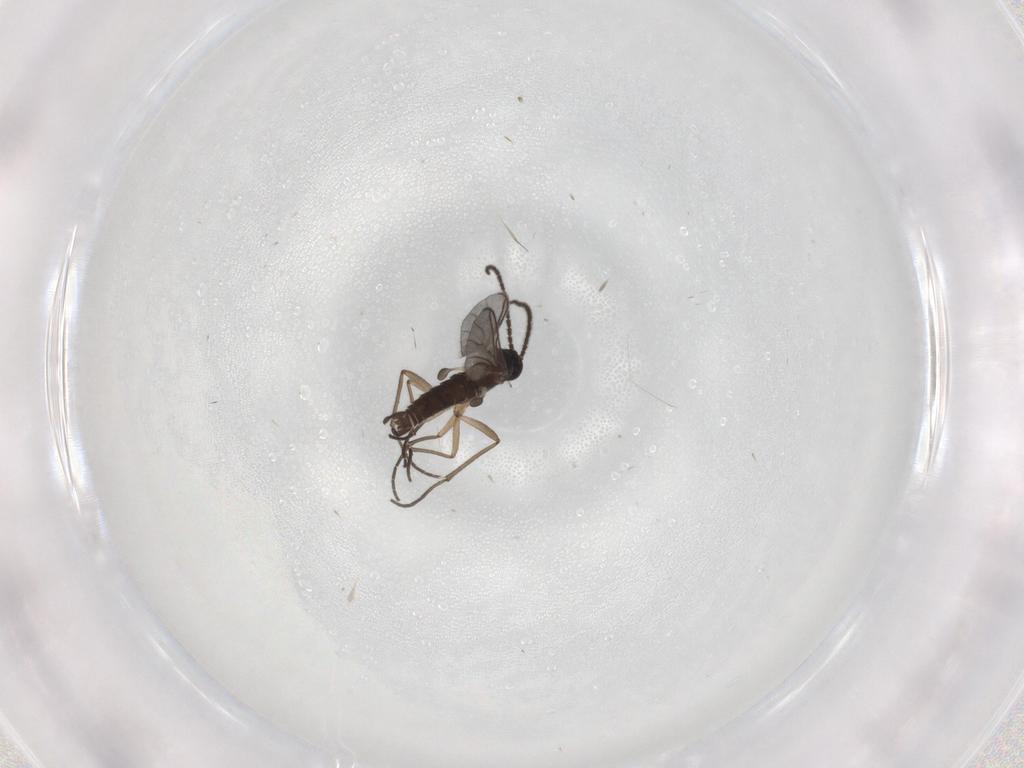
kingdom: Animalia
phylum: Arthropoda
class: Insecta
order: Diptera
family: Sciaridae
